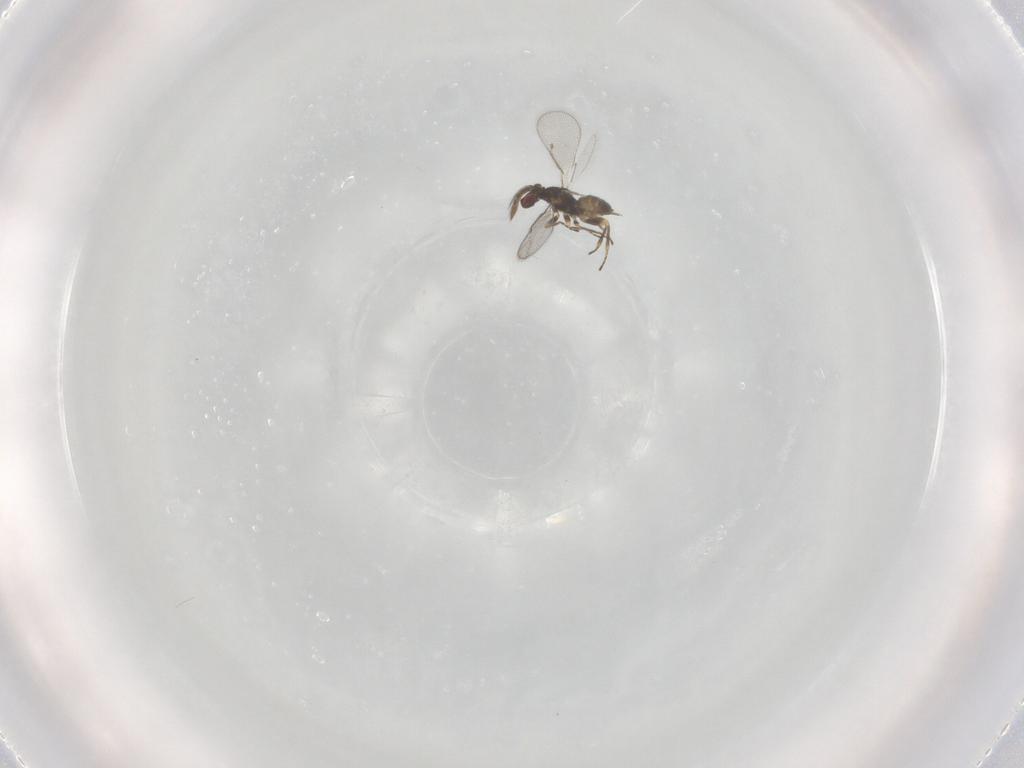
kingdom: Animalia
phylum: Arthropoda
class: Insecta
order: Hymenoptera
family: Eulophidae
